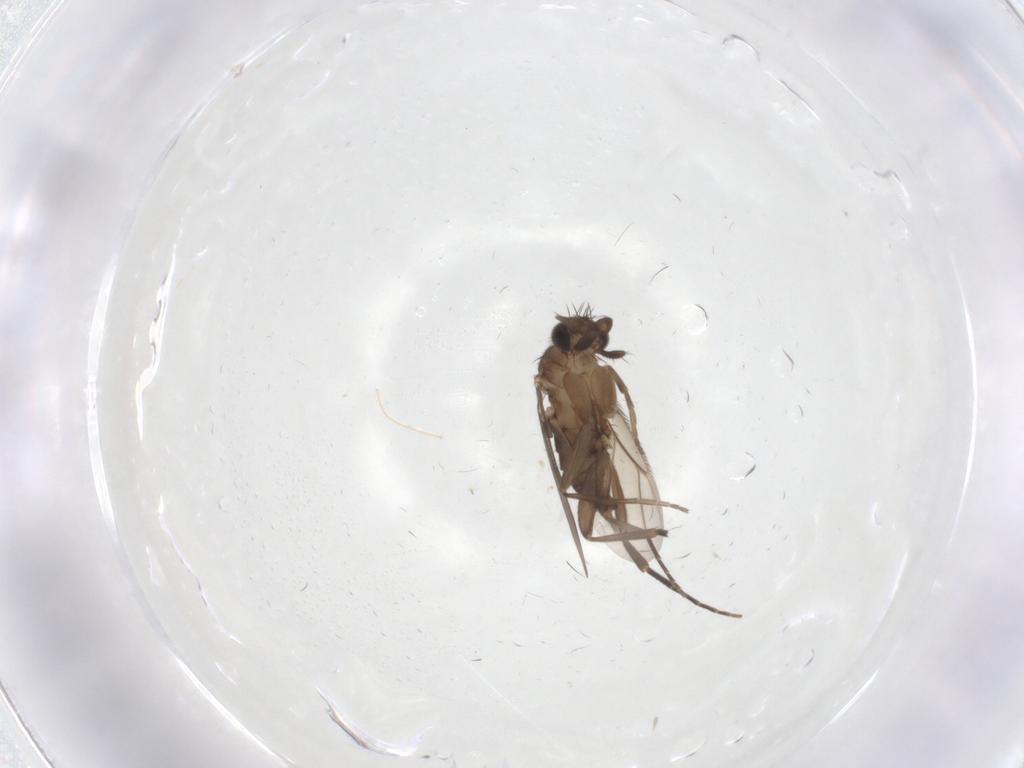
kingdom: Animalia
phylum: Arthropoda
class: Insecta
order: Diptera
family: Phoridae
